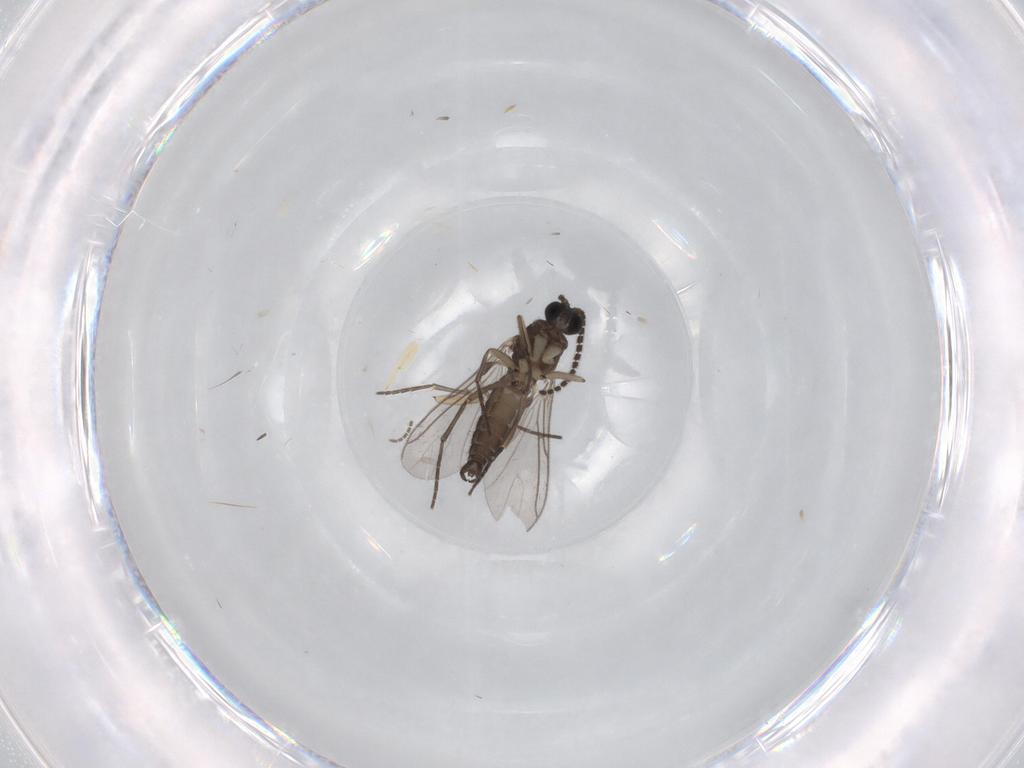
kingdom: Animalia
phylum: Arthropoda
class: Insecta
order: Diptera
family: Sciaridae
